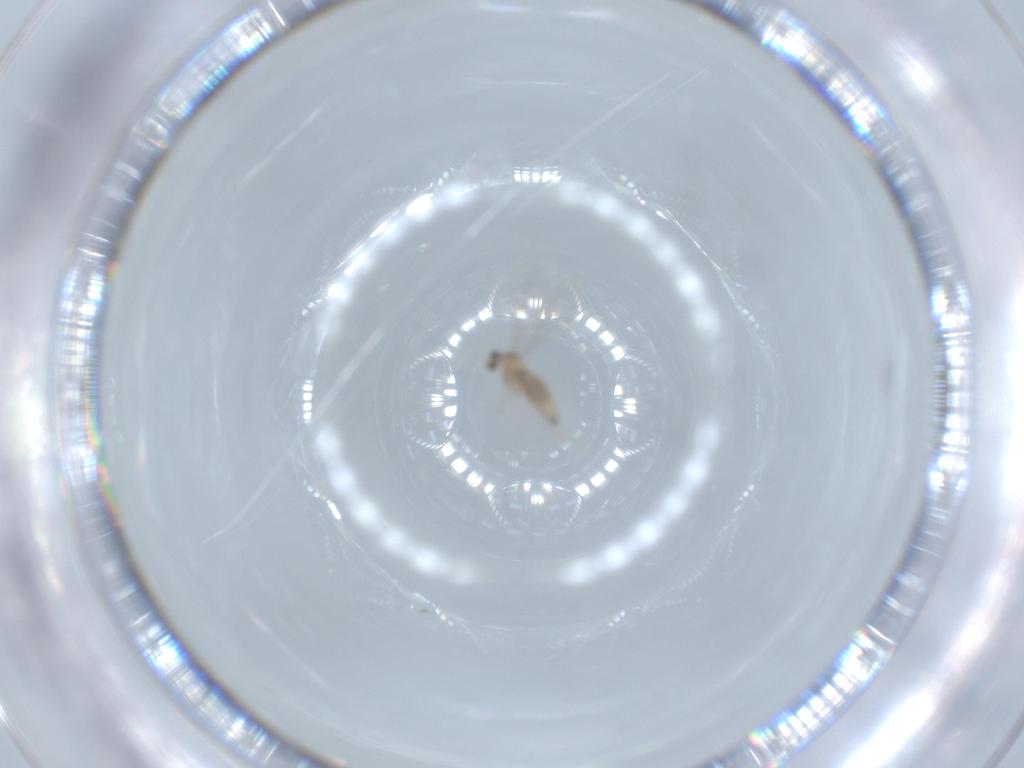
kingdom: Animalia
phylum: Arthropoda
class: Insecta
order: Diptera
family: Cecidomyiidae
